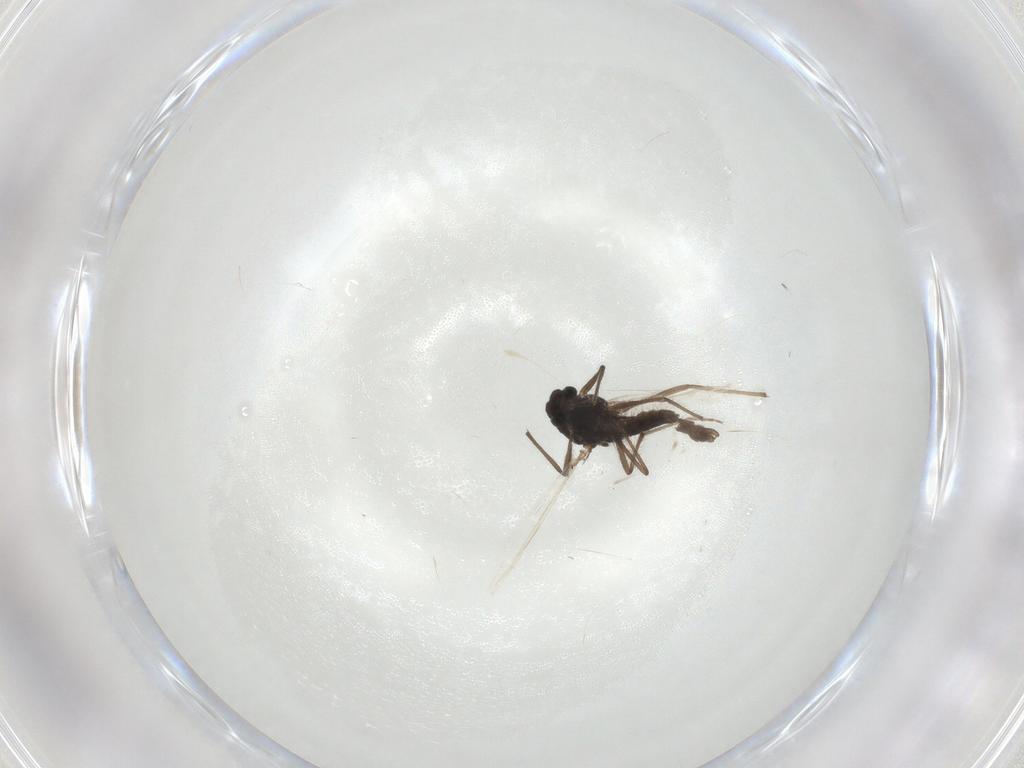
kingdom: Animalia
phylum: Arthropoda
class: Insecta
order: Diptera
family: Chironomidae
